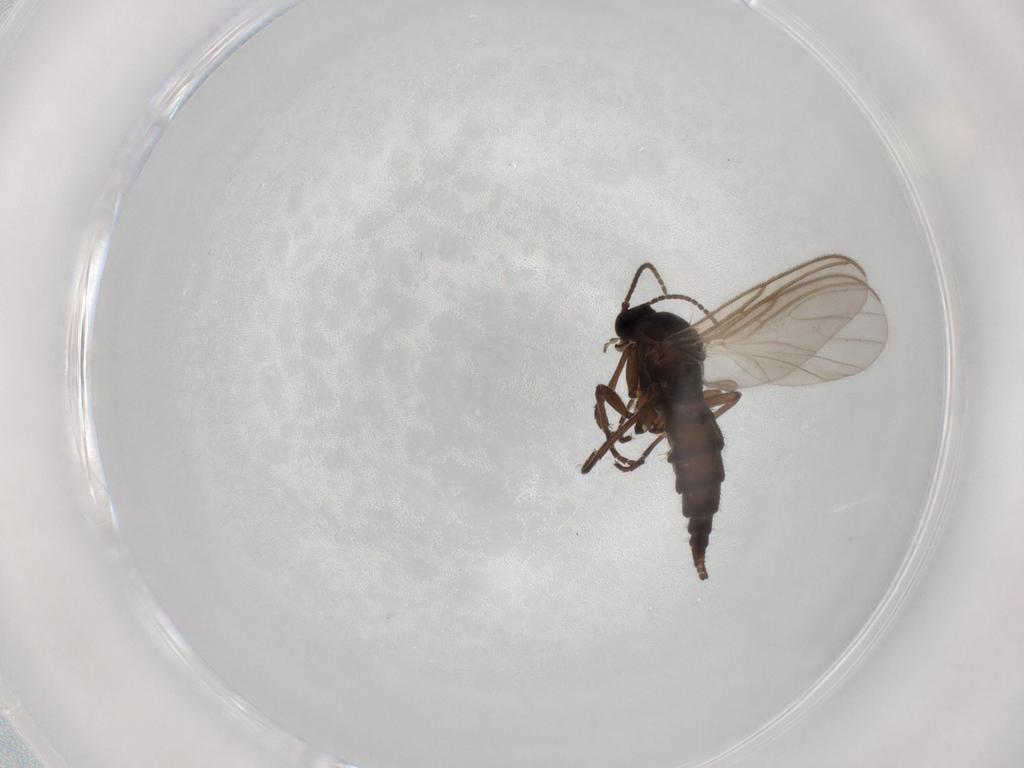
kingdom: Animalia
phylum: Arthropoda
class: Insecta
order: Diptera
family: Sciaridae
